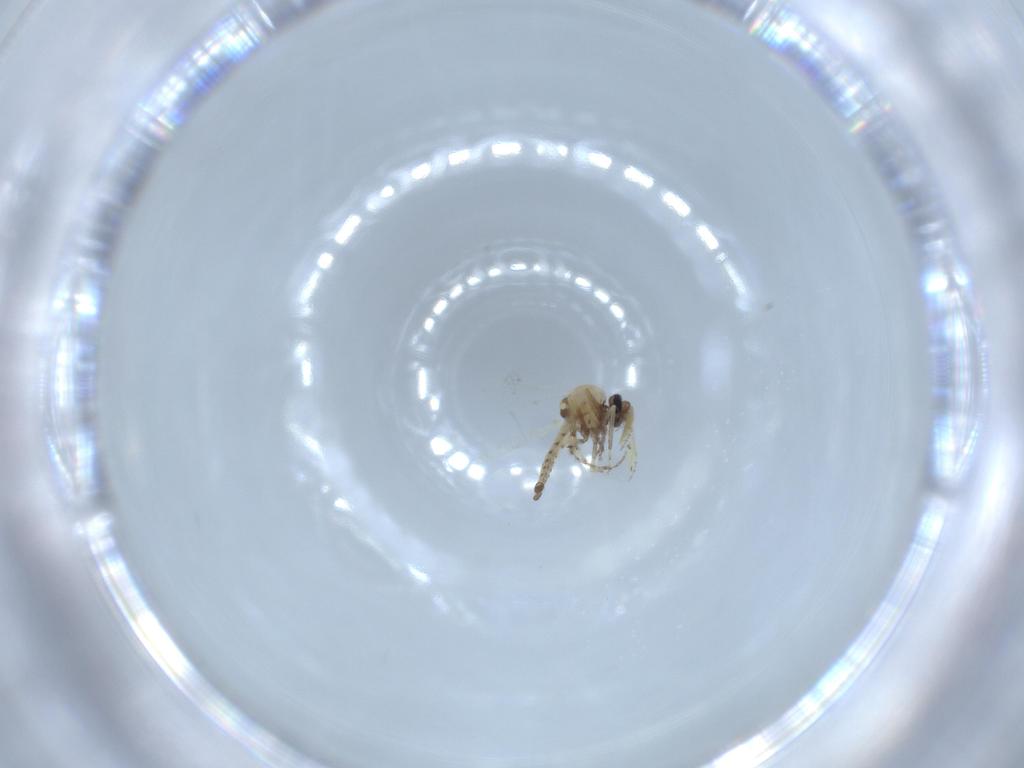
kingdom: Animalia
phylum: Arthropoda
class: Insecta
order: Diptera
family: Ceratopogonidae
